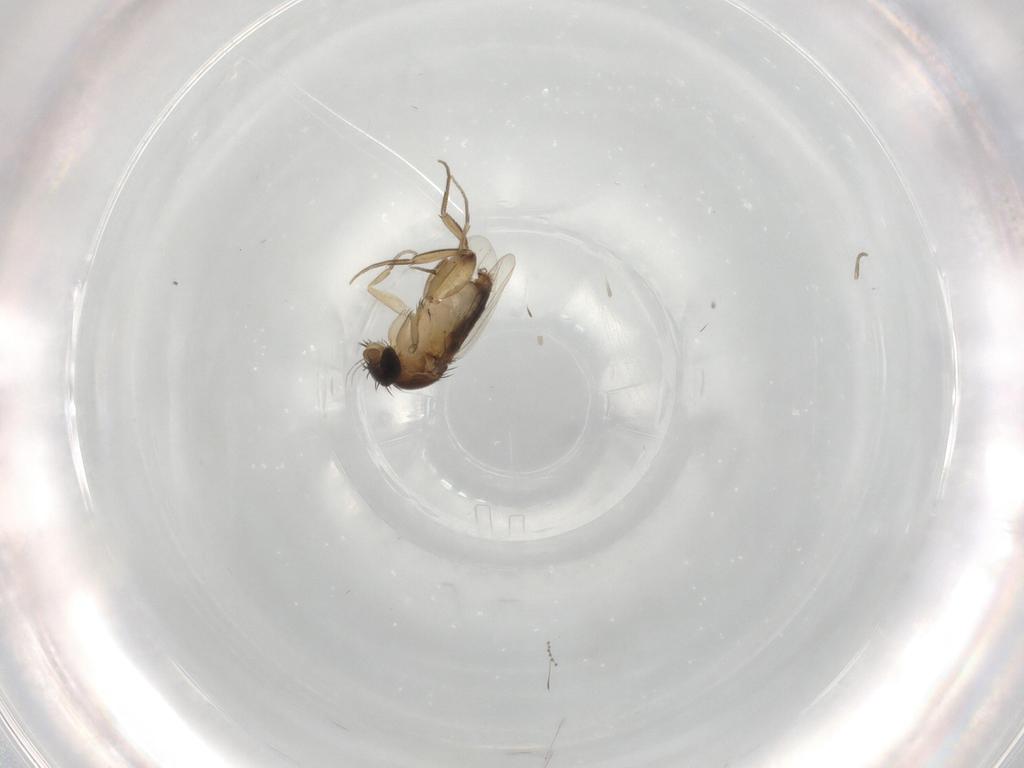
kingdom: Animalia
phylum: Arthropoda
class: Insecta
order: Diptera
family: Phoridae
